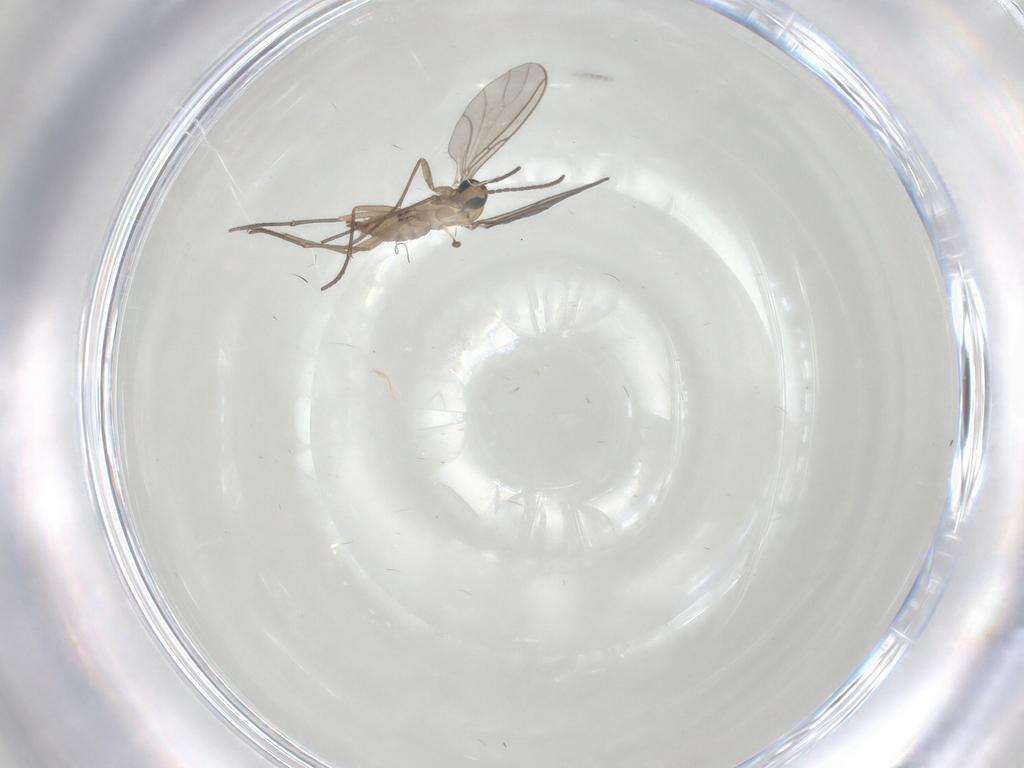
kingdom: Animalia
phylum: Arthropoda
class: Insecta
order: Diptera
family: Sciaridae
